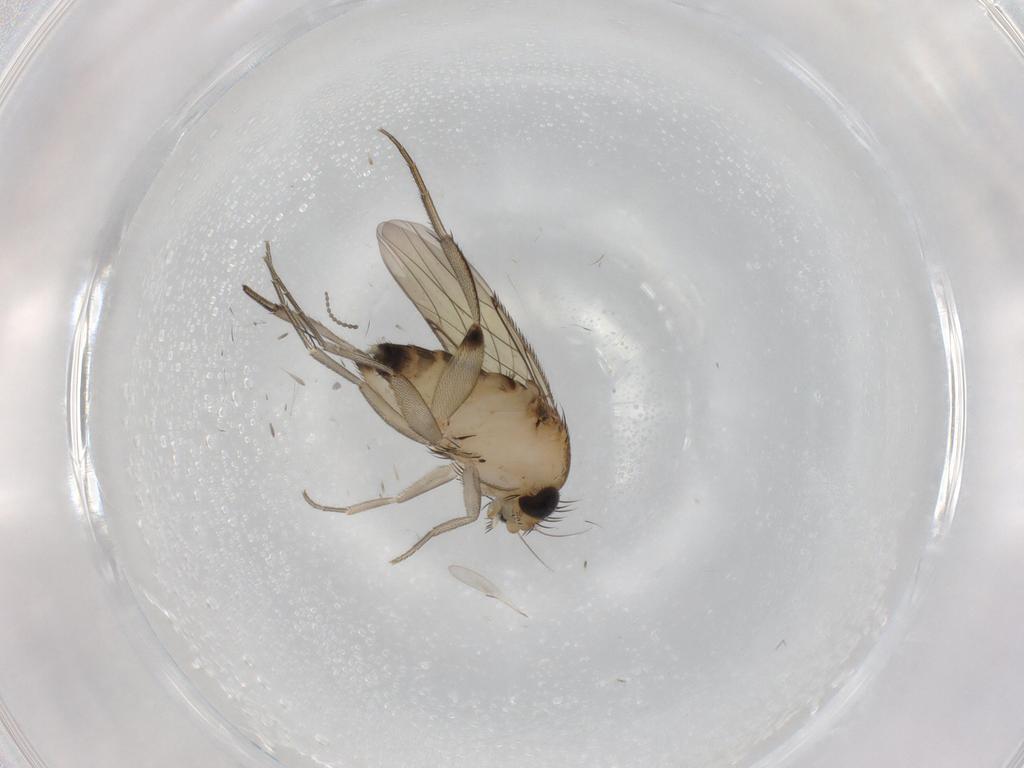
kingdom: Animalia
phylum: Arthropoda
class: Insecta
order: Diptera
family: Phoridae
